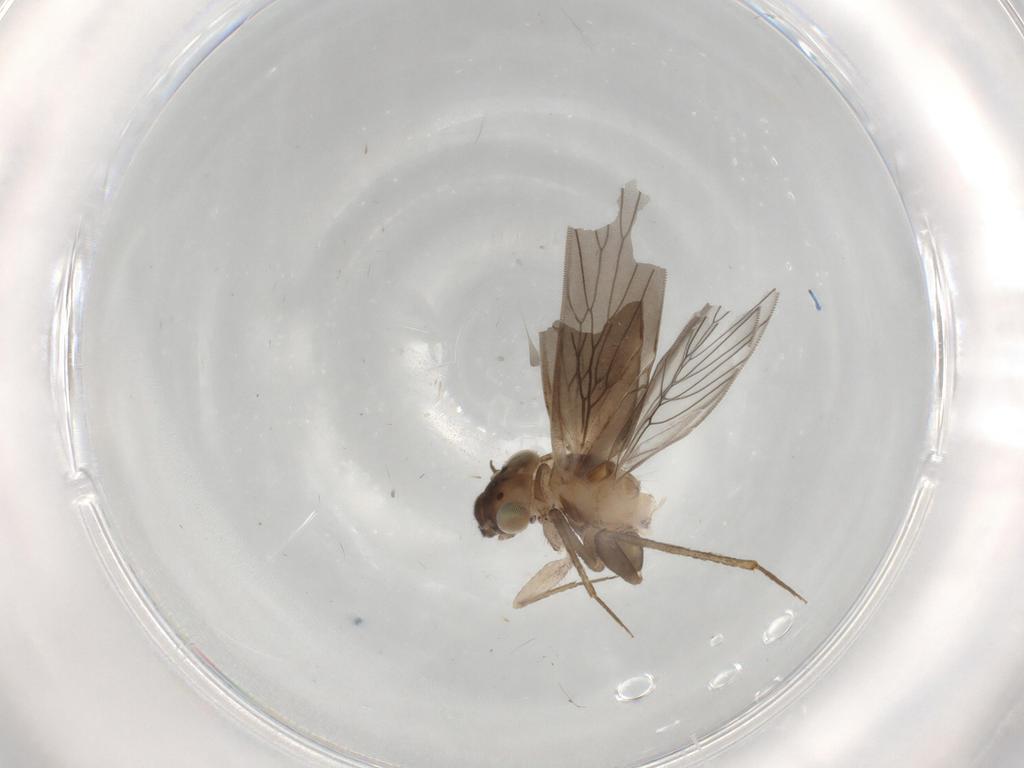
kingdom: Animalia
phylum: Arthropoda
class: Insecta
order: Psocodea
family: Lepidopsocidae
